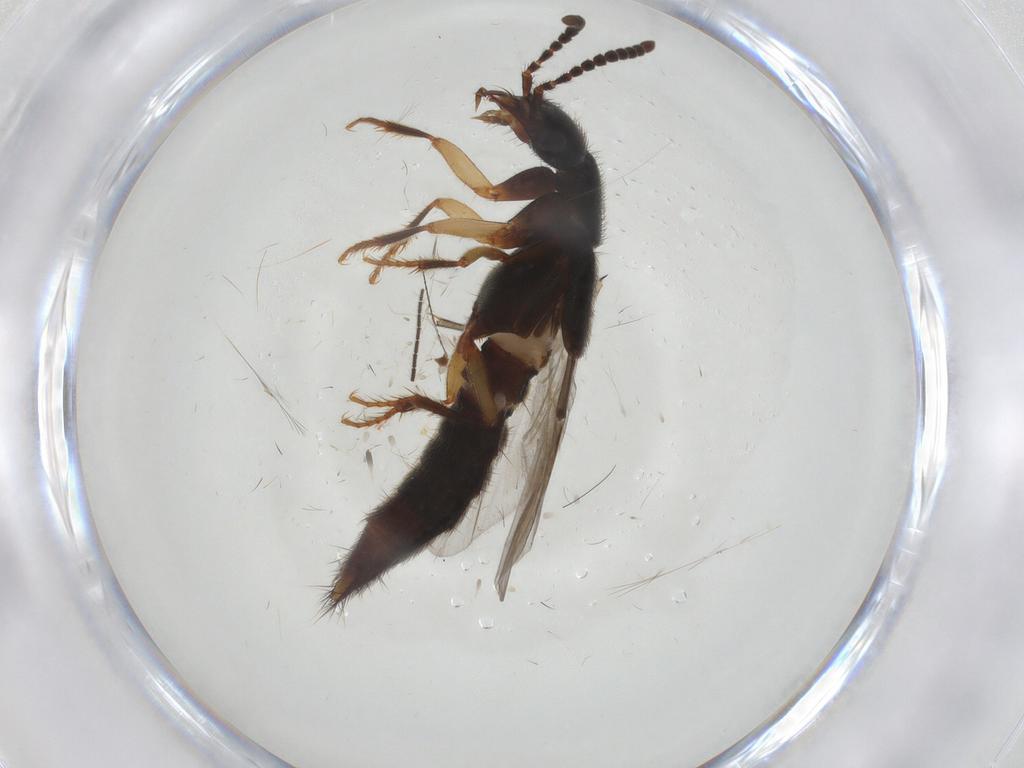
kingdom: Animalia
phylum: Arthropoda
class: Insecta
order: Coleoptera
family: Staphylinidae
